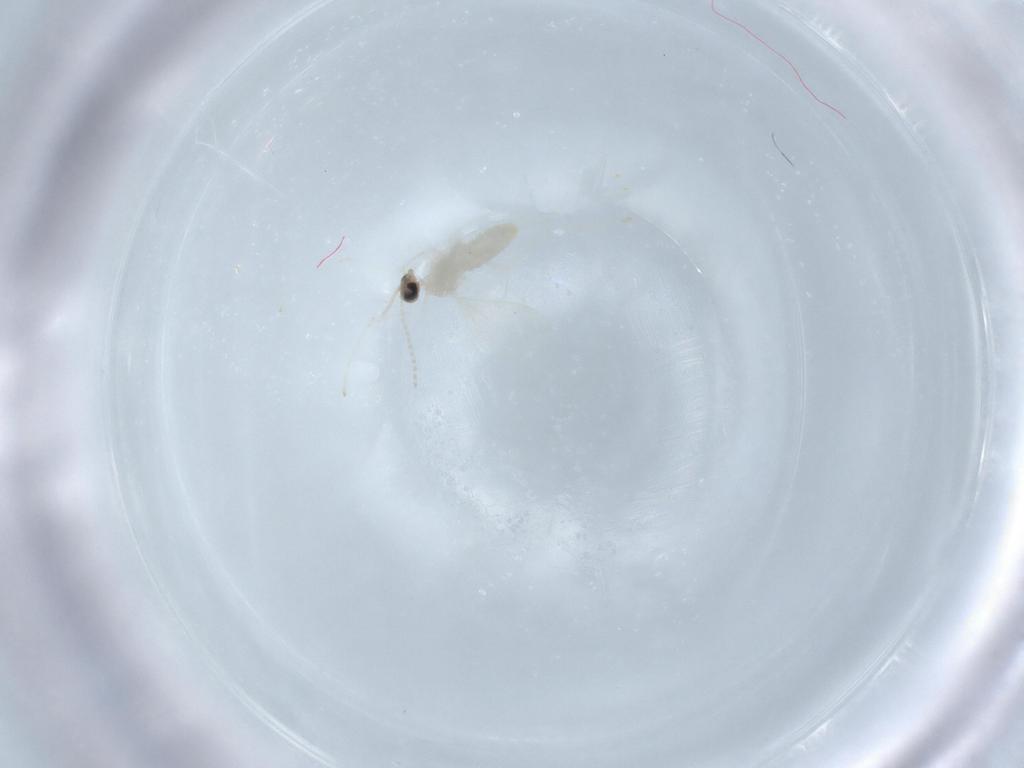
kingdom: Animalia
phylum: Arthropoda
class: Insecta
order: Diptera
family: Cecidomyiidae
